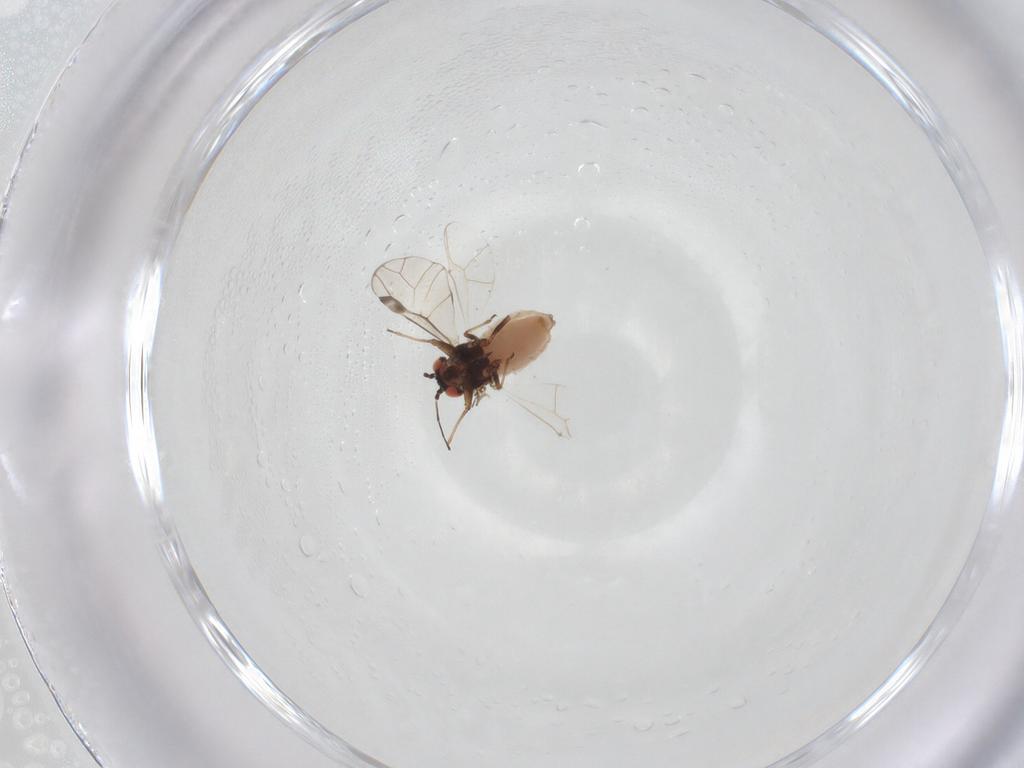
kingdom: Animalia
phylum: Arthropoda
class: Insecta
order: Hemiptera
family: Aphididae
